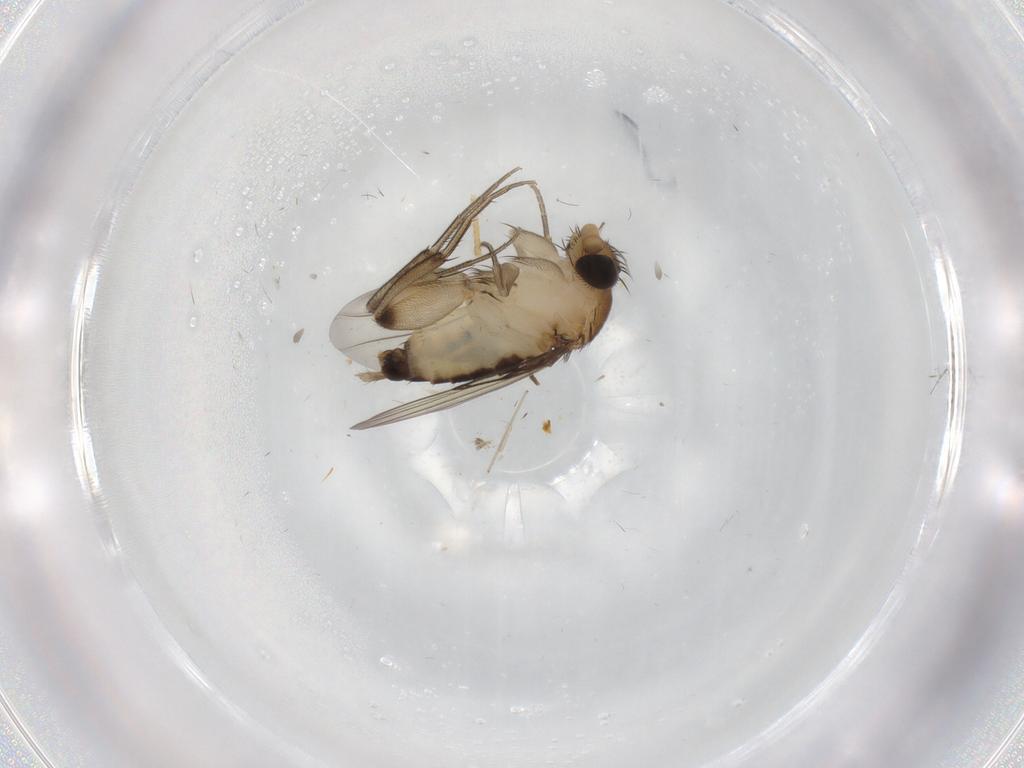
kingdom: Animalia
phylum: Arthropoda
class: Insecta
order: Diptera
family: Phoridae
